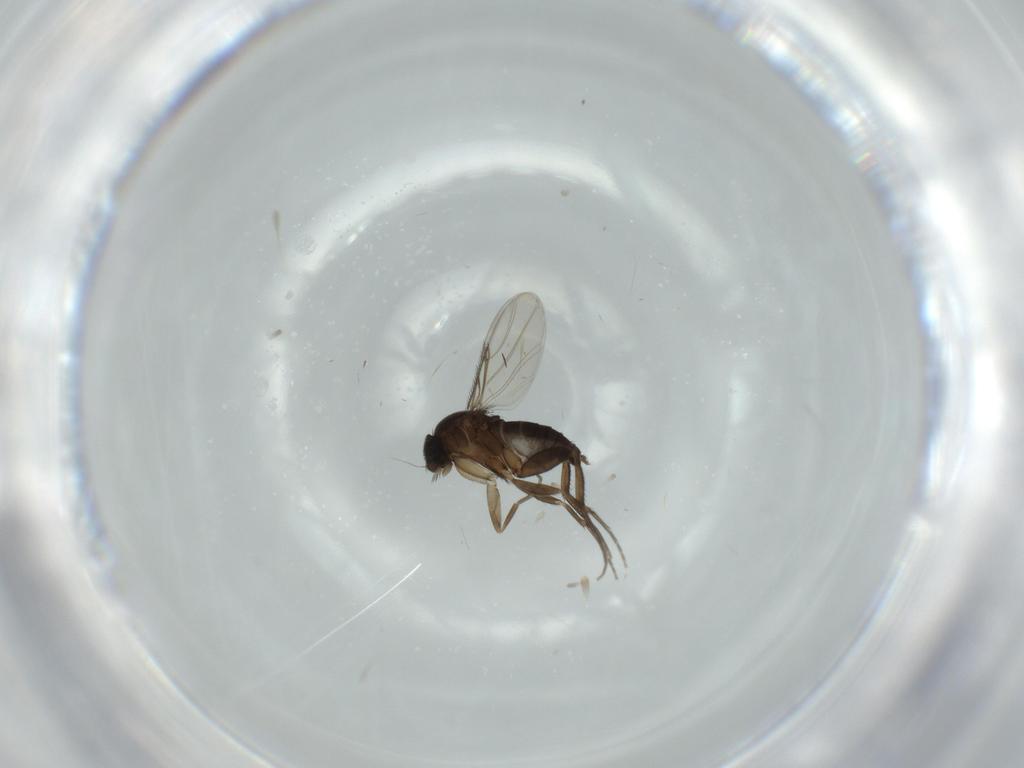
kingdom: Animalia
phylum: Arthropoda
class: Insecta
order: Diptera
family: Phoridae
